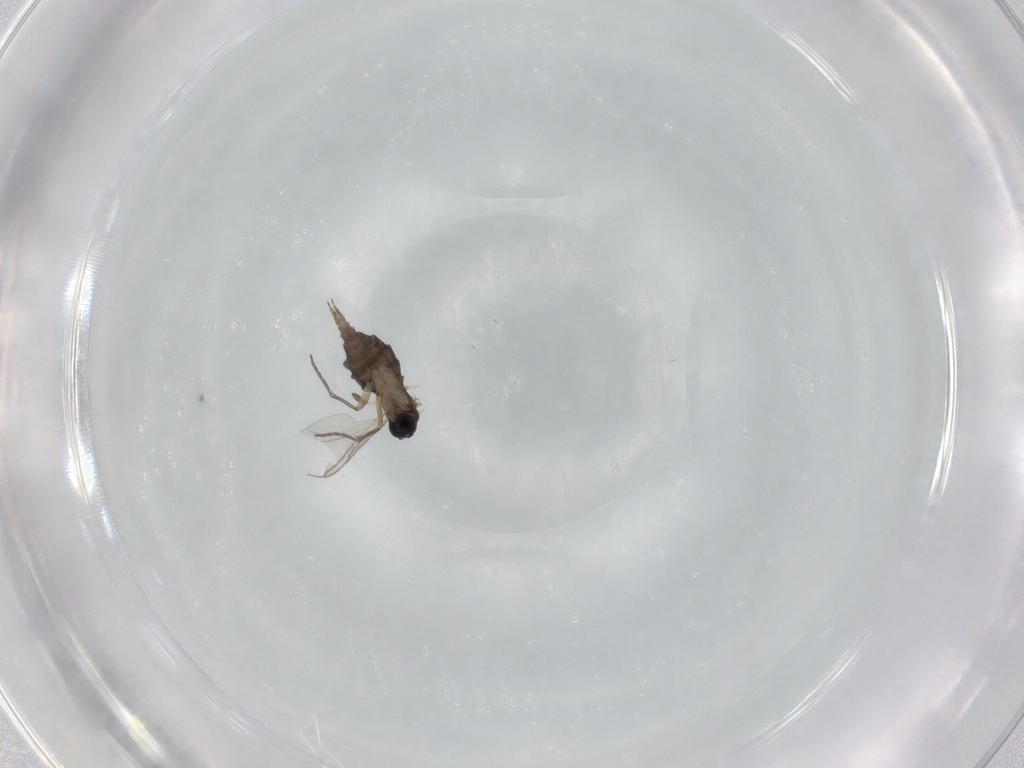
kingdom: Animalia
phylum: Arthropoda
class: Insecta
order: Diptera
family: Sciaridae
